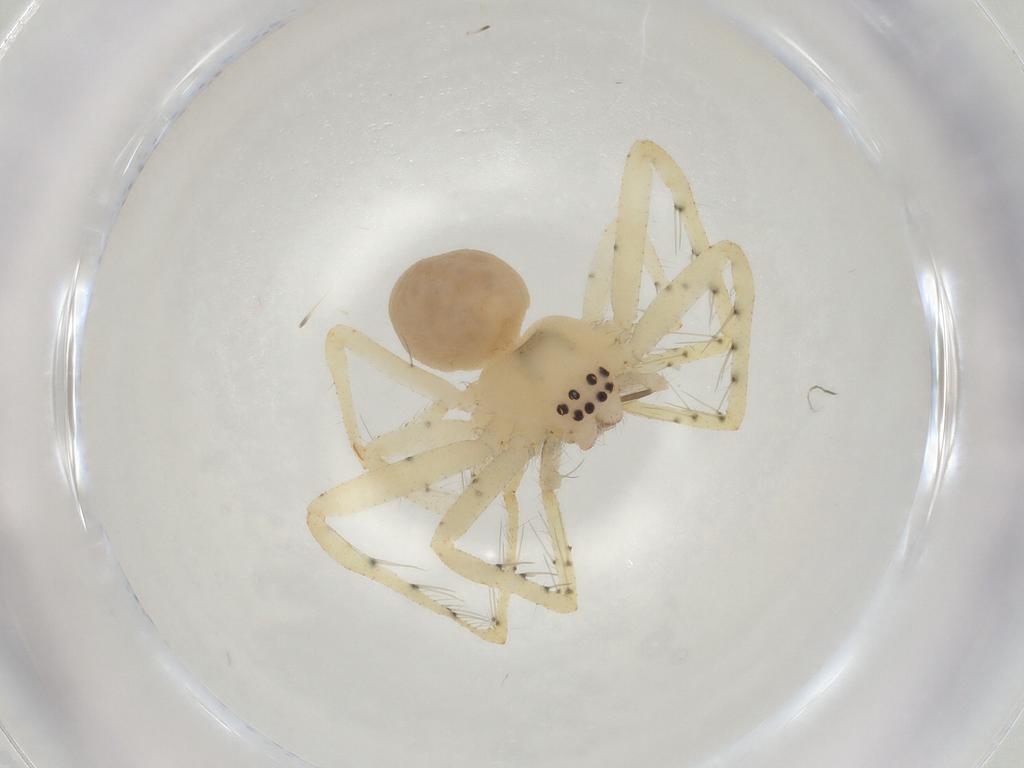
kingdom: Animalia
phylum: Arthropoda
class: Arachnida
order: Araneae
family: Sparassidae
